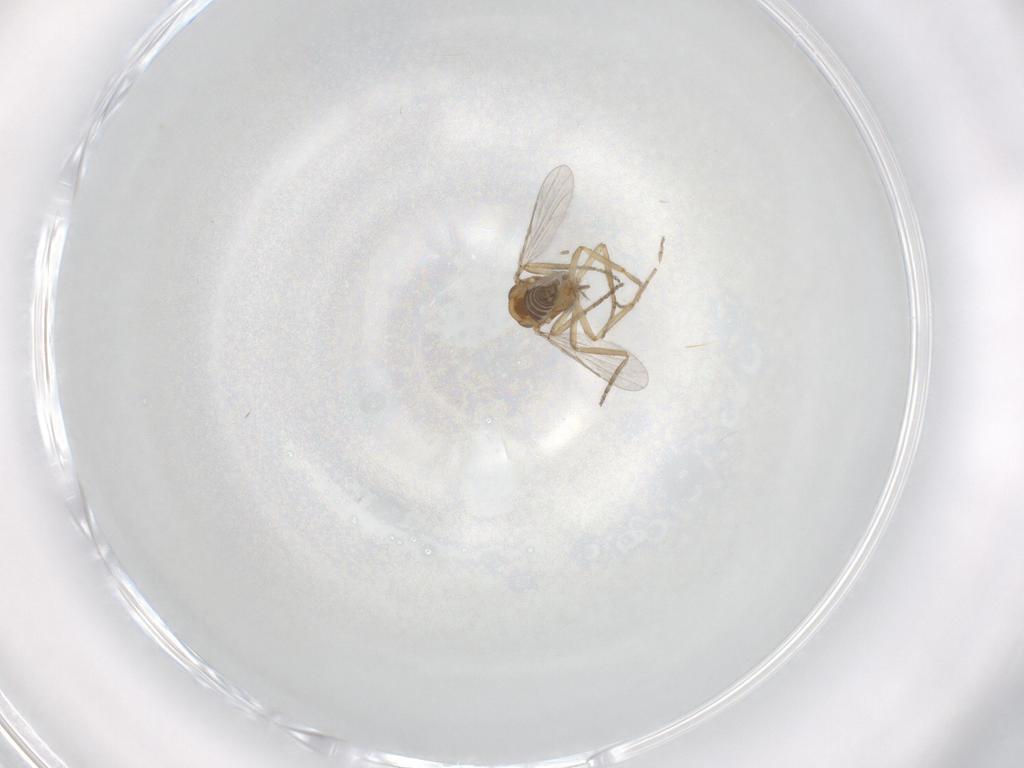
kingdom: Animalia
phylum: Arthropoda
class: Insecta
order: Diptera
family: Ceratopogonidae
